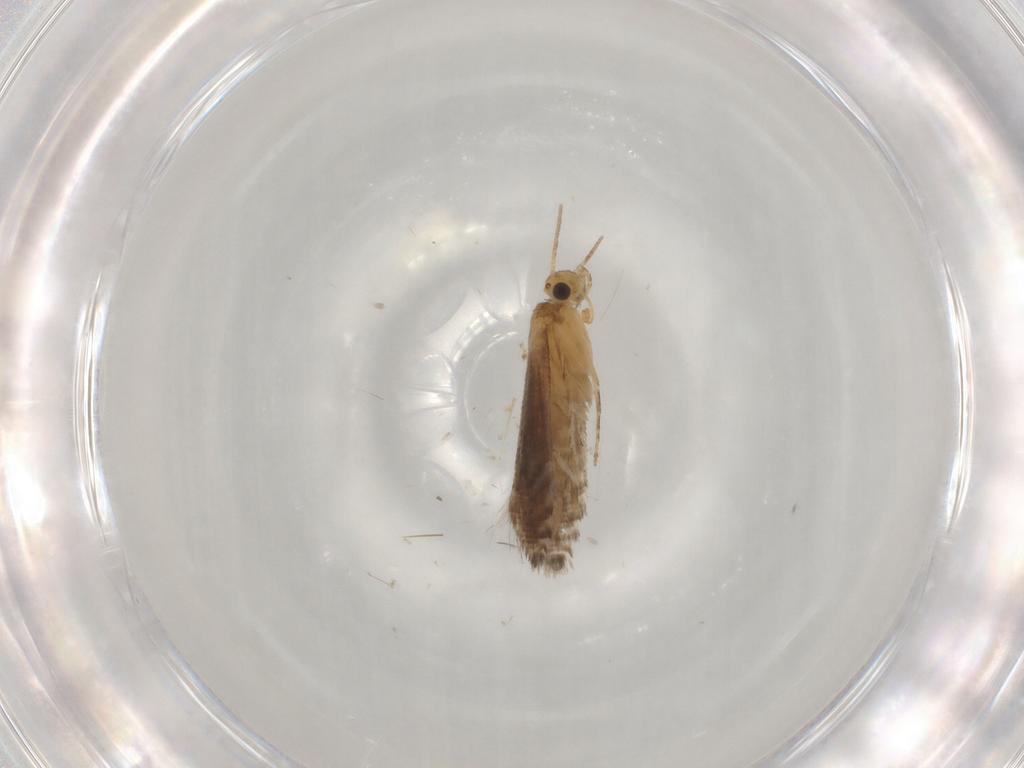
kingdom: Animalia
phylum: Arthropoda
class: Insecta
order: Lepidoptera
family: Glyphipterigidae
